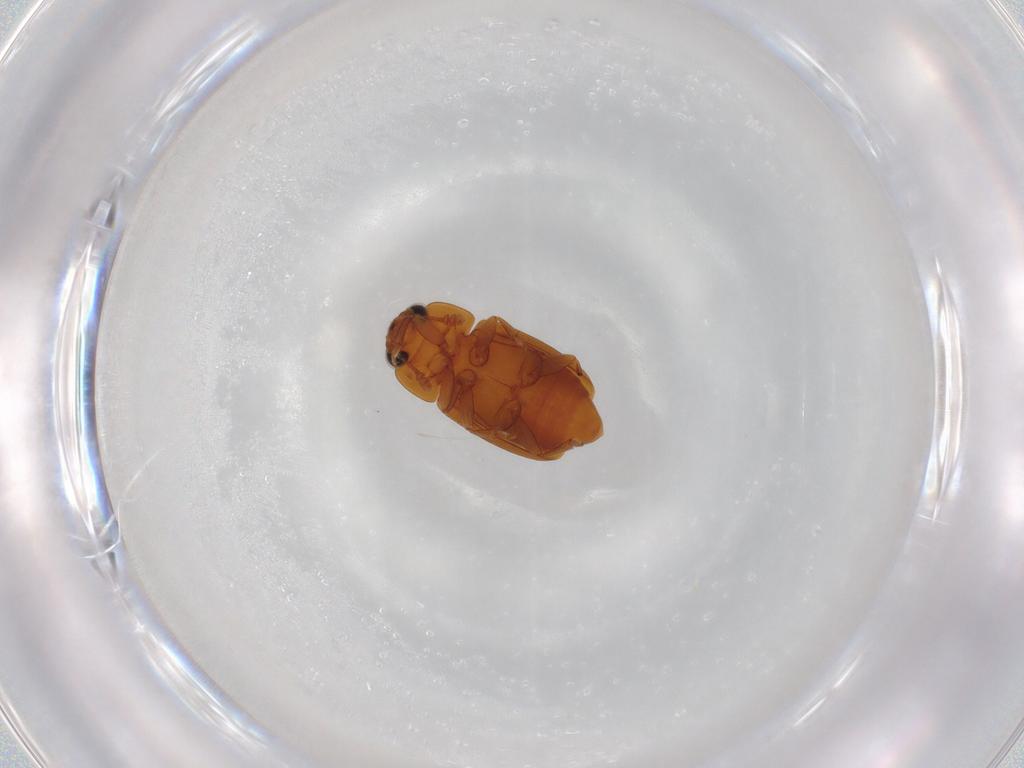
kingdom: Animalia
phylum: Arthropoda
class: Insecta
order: Coleoptera
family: Nitidulidae
